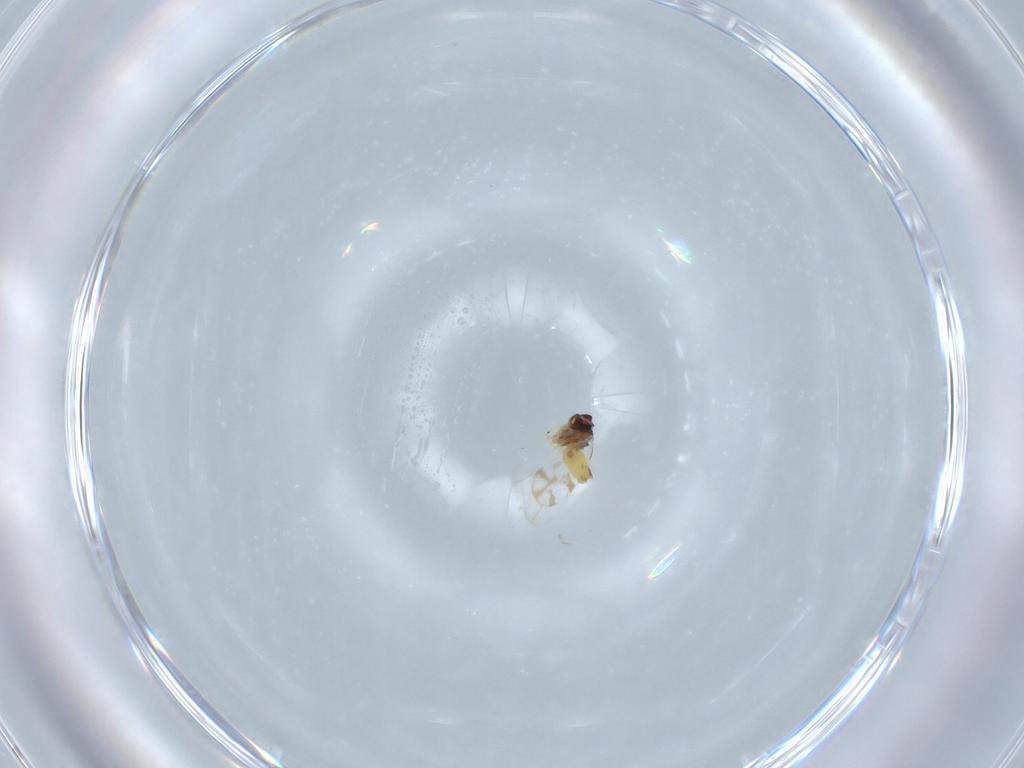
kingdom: Animalia
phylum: Arthropoda
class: Insecta
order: Hemiptera
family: Aleyrodidae
